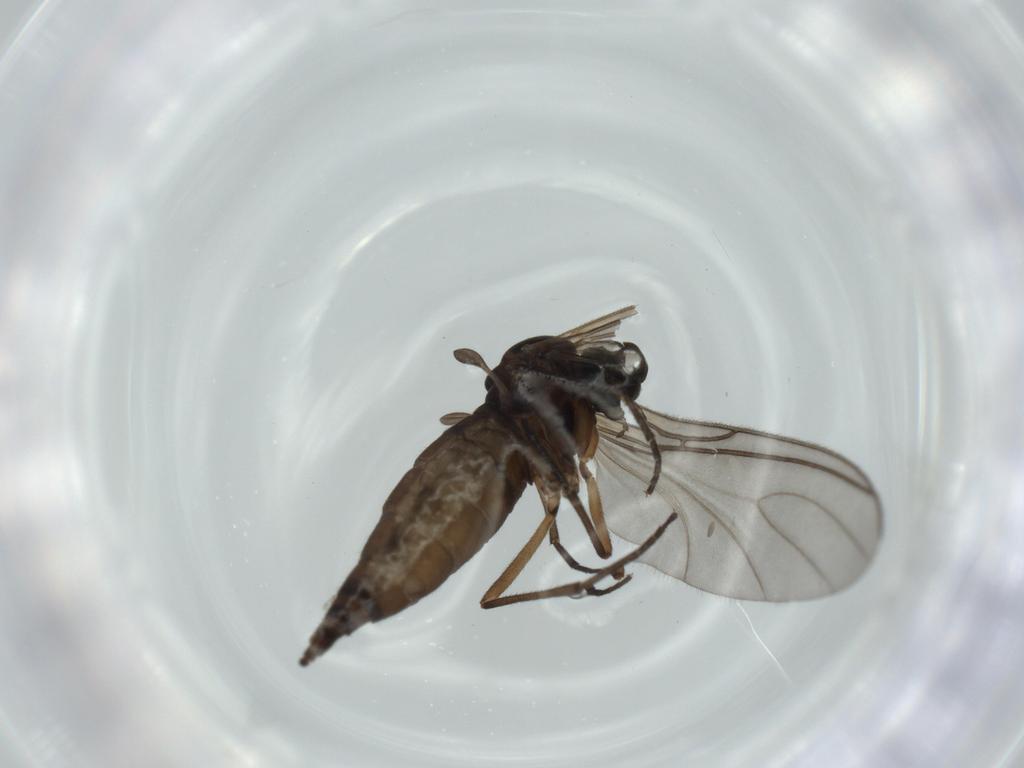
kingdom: Animalia
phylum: Arthropoda
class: Insecta
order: Diptera
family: Sciaridae
